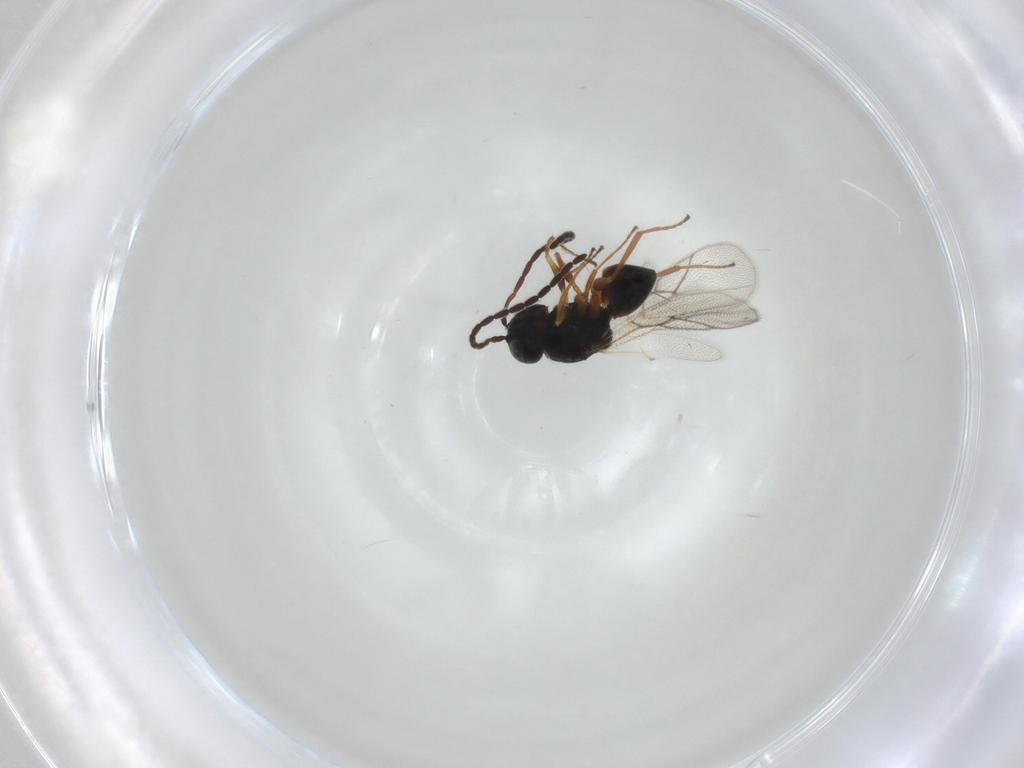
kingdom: Animalia
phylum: Arthropoda
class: Insecta
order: Hymenoptera
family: Figitidae
